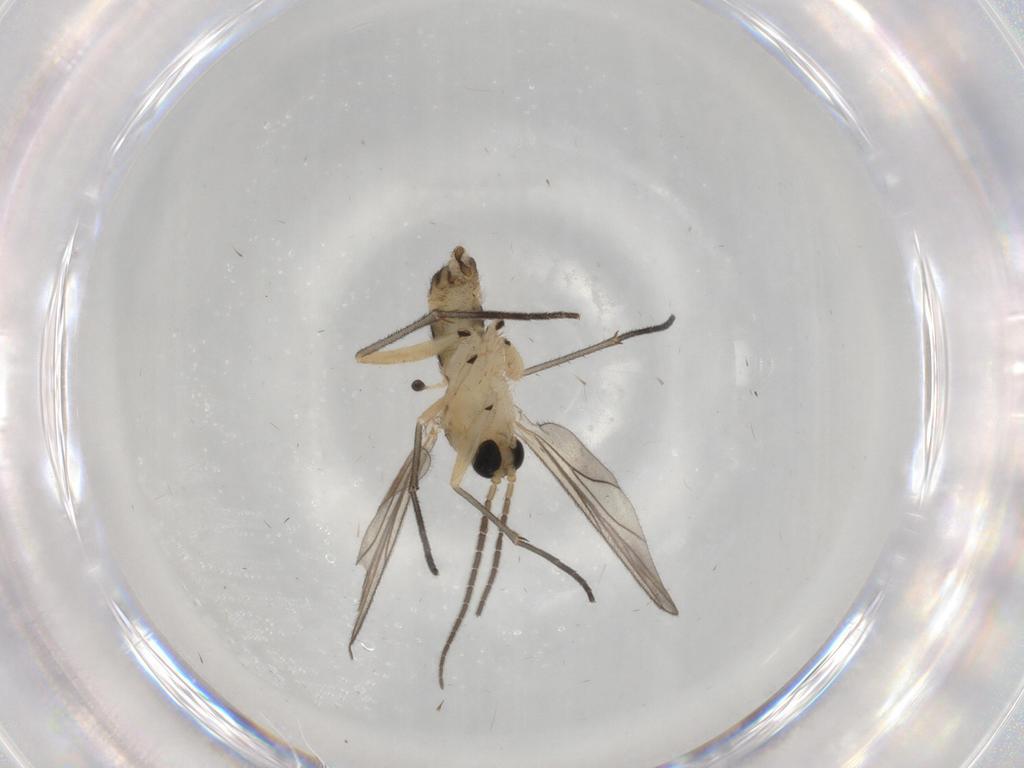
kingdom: Animalia
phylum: Arthropoda
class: Insecta
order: Diptera
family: Sciaridae
